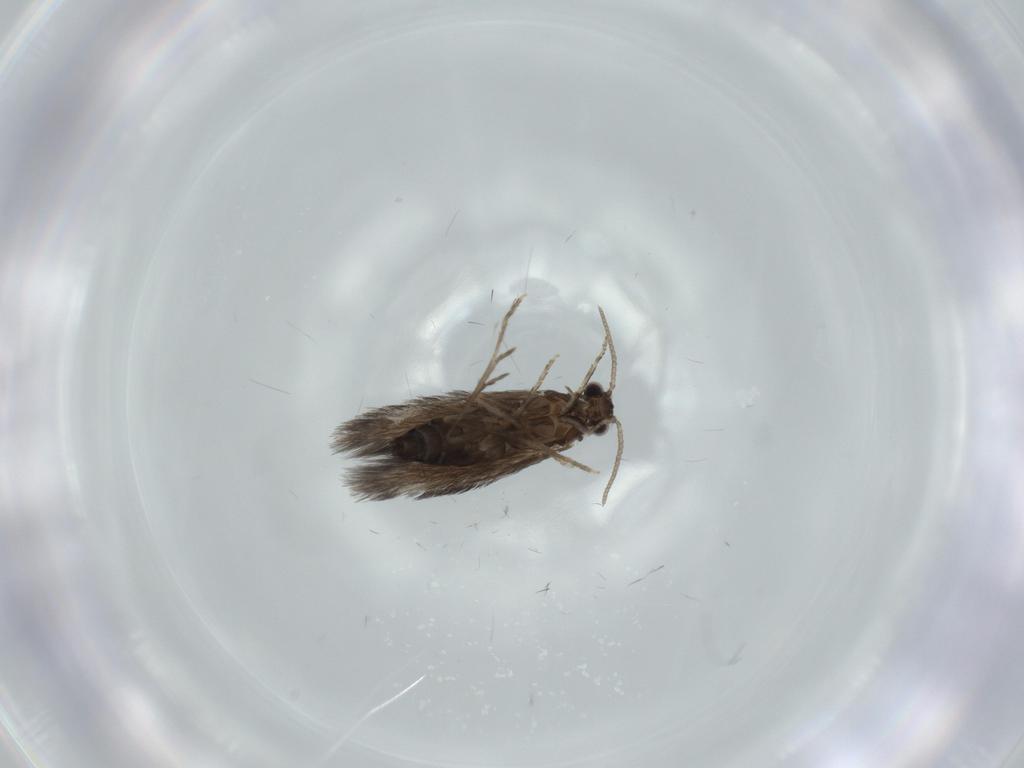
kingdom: Animalia
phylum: Arthropoda
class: Insecta
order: Trichoptera
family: Hydroptilidae
